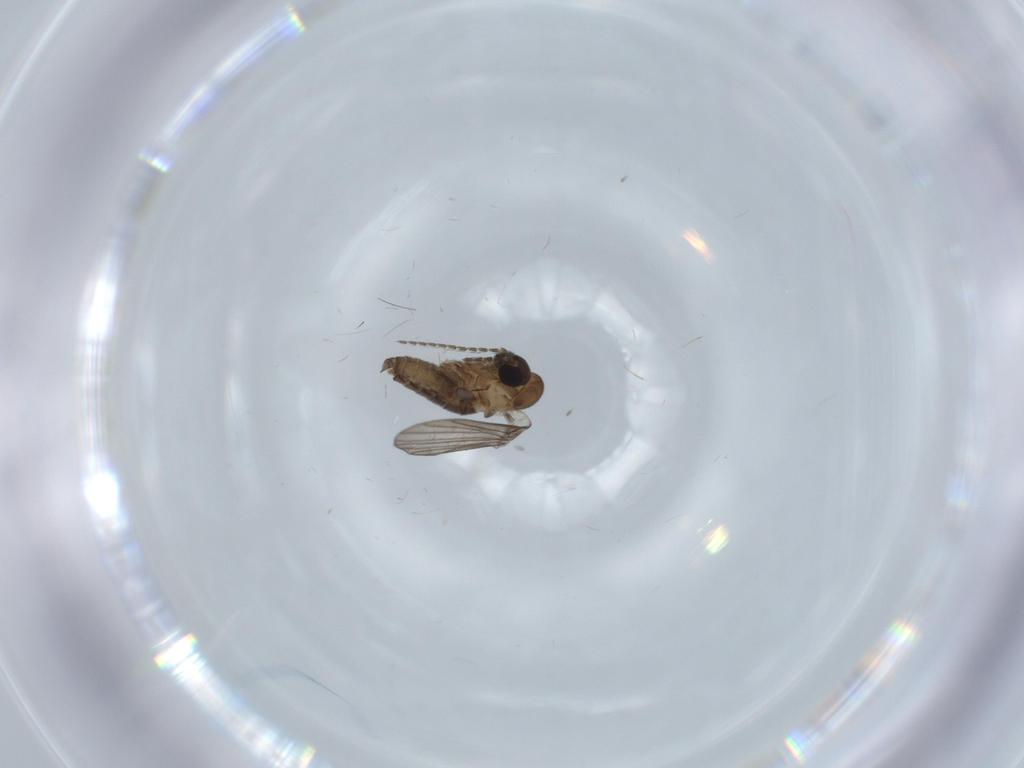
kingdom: Animalia
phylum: Arthropoda
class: Insecta
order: Diptera
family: Psychodidae
